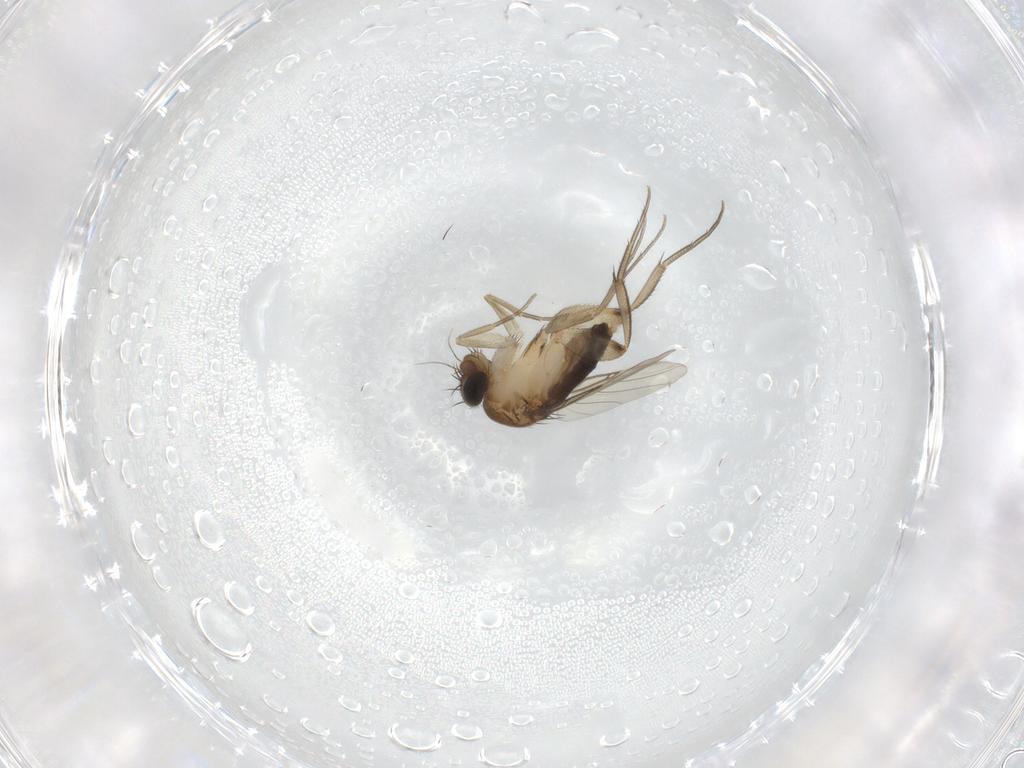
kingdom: Animalia
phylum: Arthropoda
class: Insecta
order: Diptera
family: Phoridae
